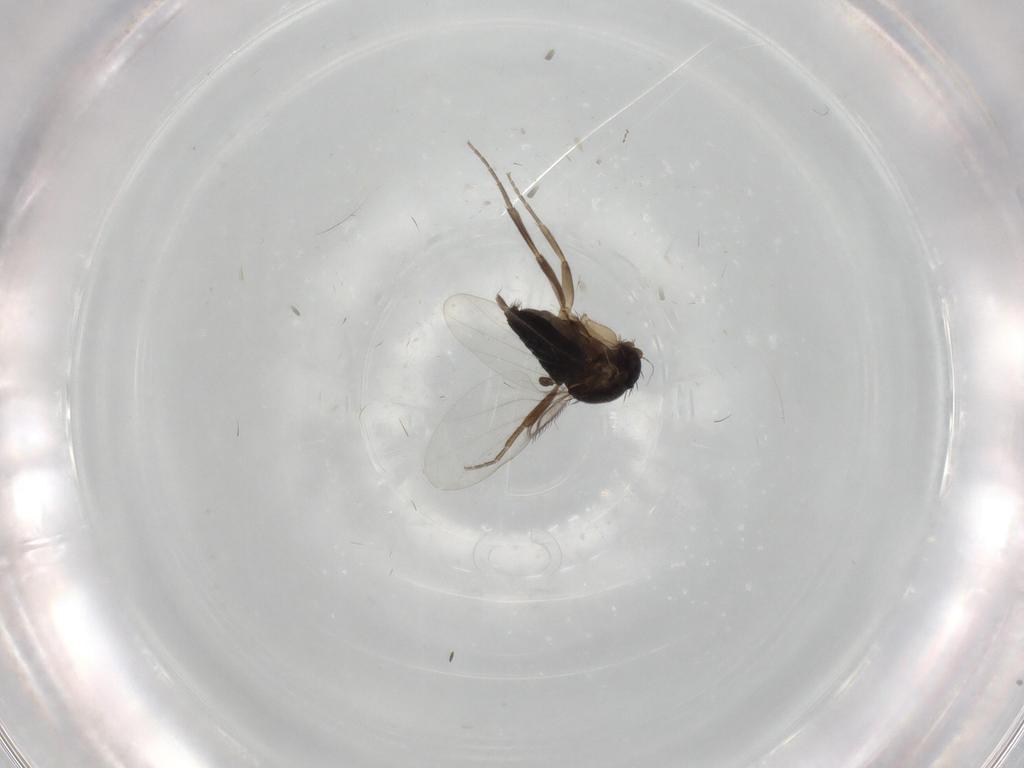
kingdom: Animalia
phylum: Arthropoda
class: Insecta
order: Diptera
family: Phoridae
